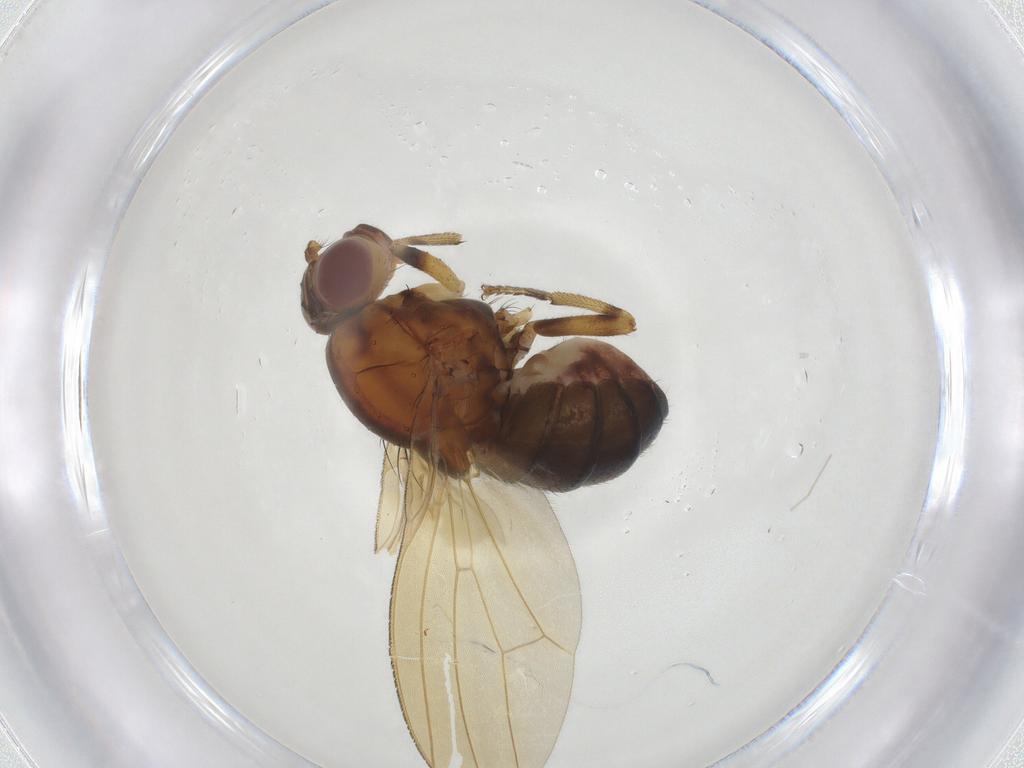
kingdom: Animalia
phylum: Arthropoda
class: Insecta
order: Diptera
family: Lauxaniidae
